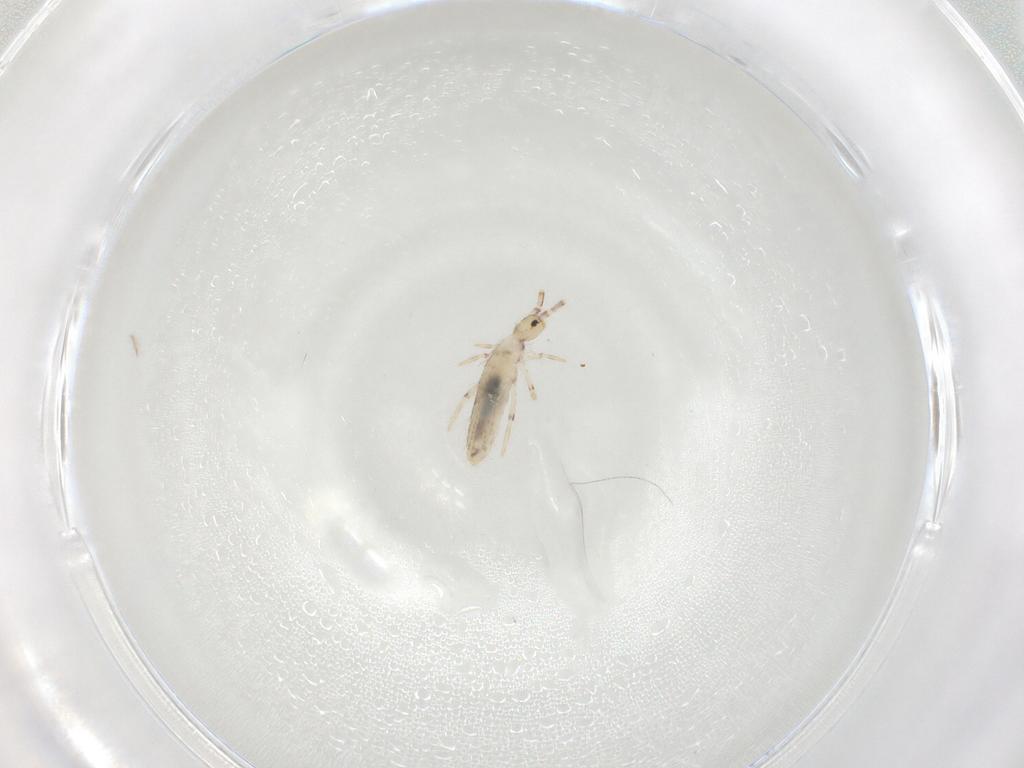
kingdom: Animalia
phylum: Arthropoda
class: Collembola
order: Entomobryomorpha
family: Entomobryidae
